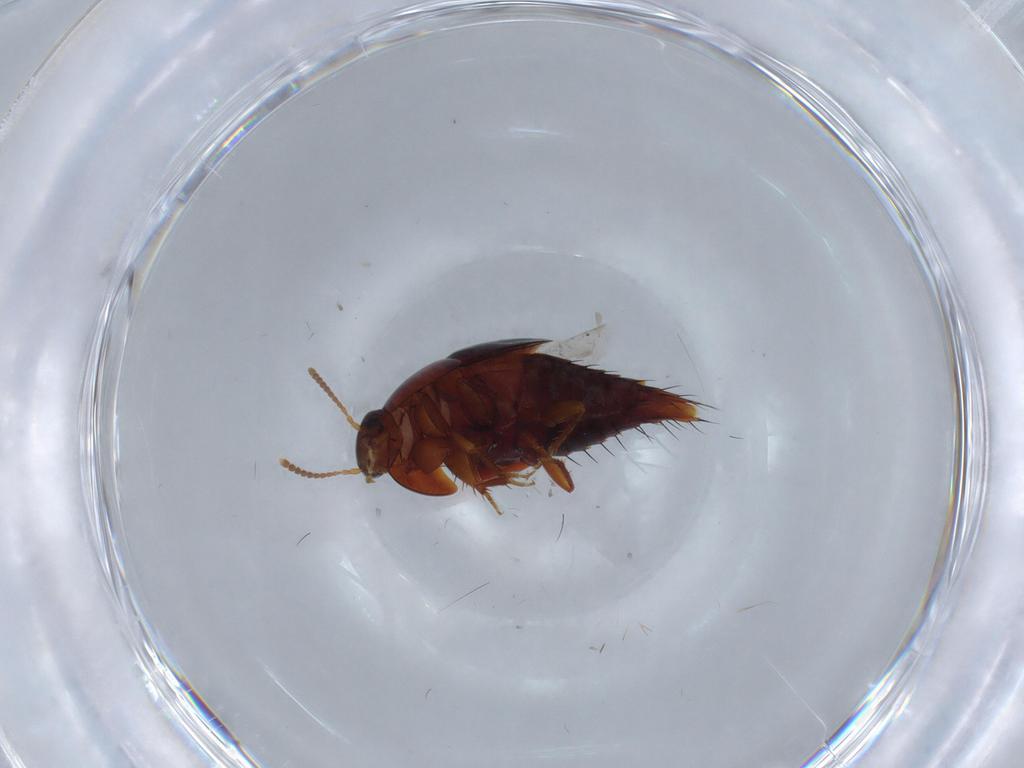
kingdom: Animalia
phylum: Arthropoda
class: Insecta
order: Coleoptera
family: Staphylinidae
